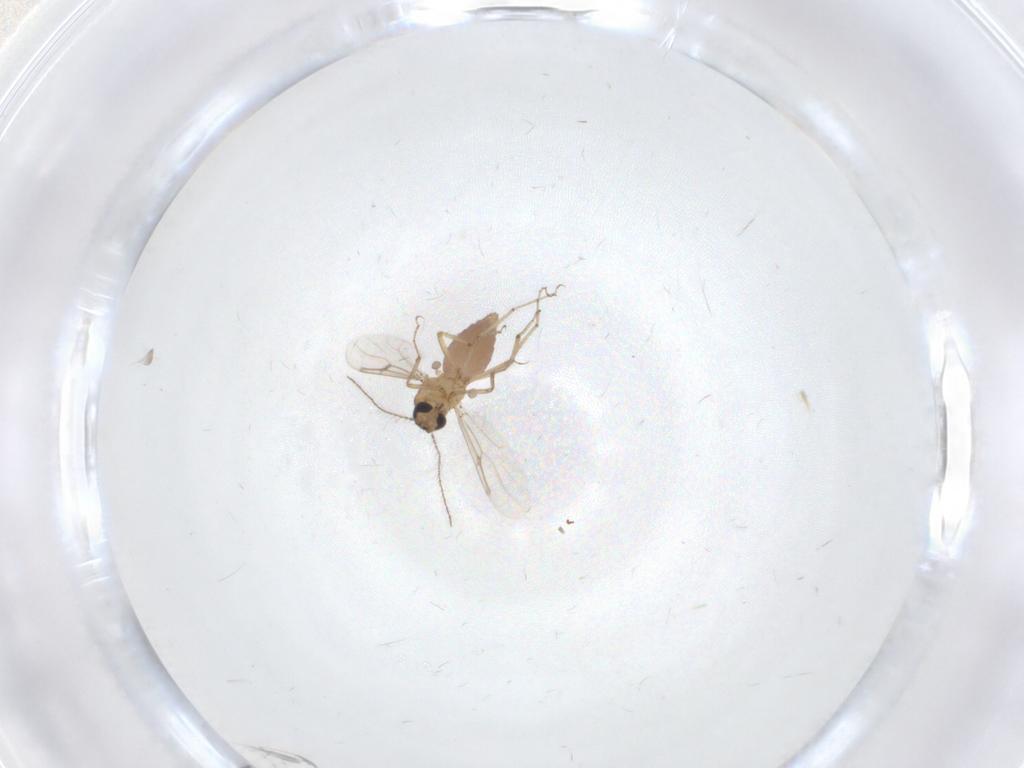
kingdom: Animalia
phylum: Arthropoda
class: Insecta
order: Diptera
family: Ceratopogonidae
